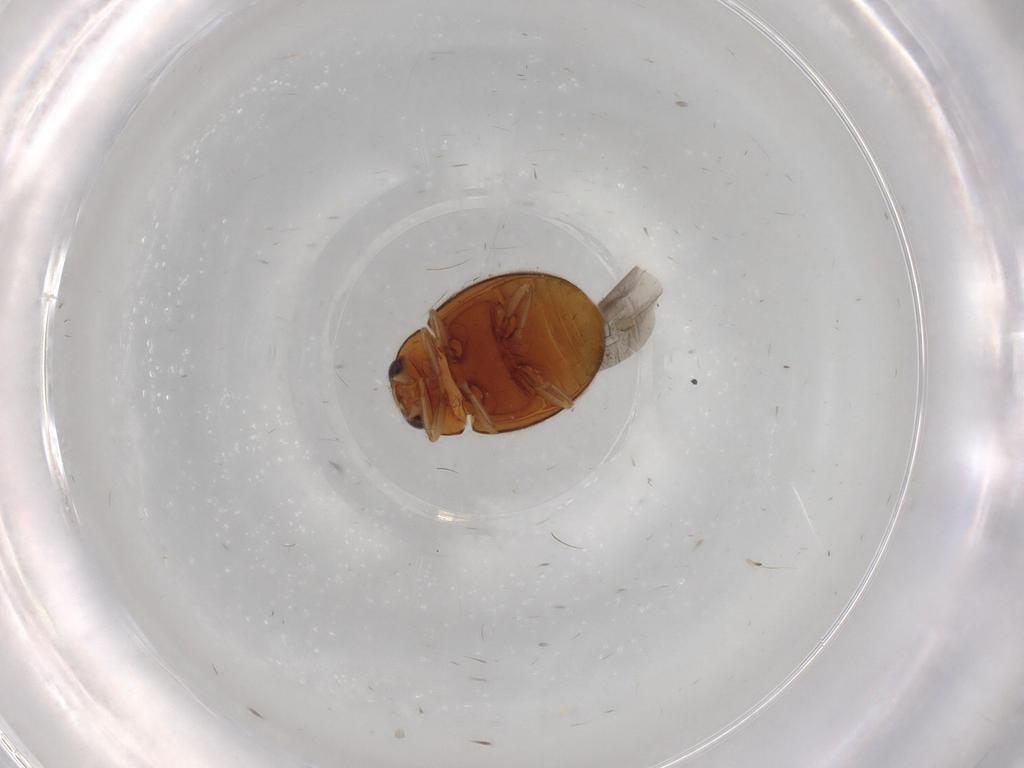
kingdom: Animalia
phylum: Arthropoda
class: Insecta
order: Coleoptera
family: Coccinellidae
